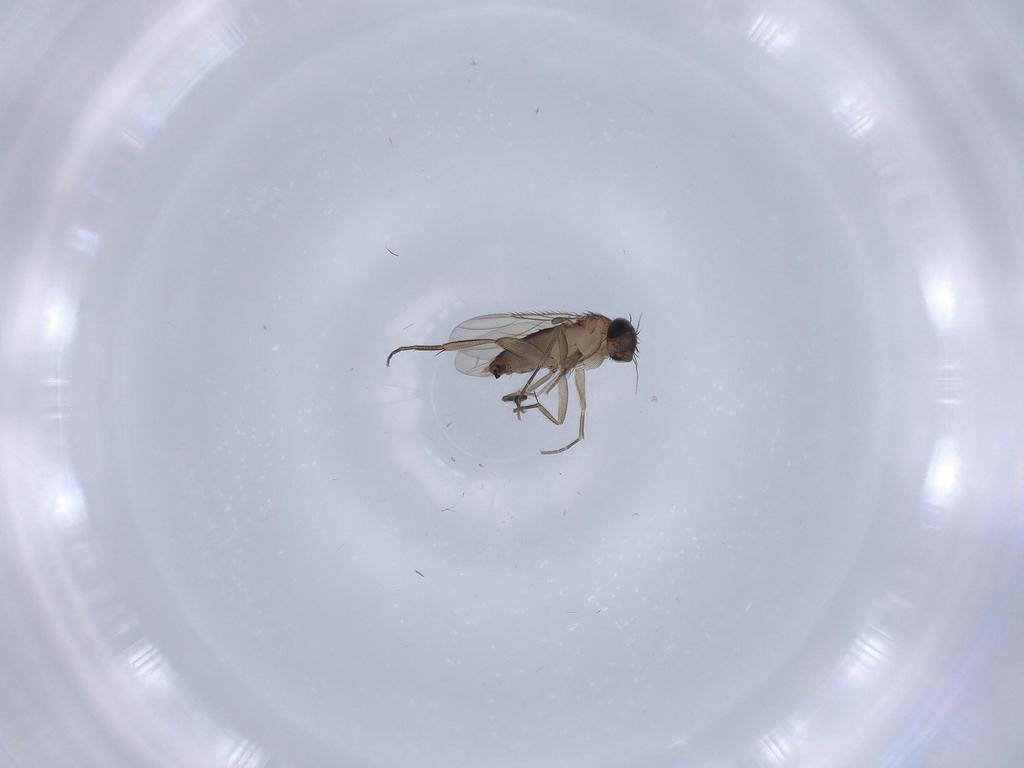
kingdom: Animalia
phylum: Arthropoda
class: Insecta
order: Diptera
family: Phoridae
